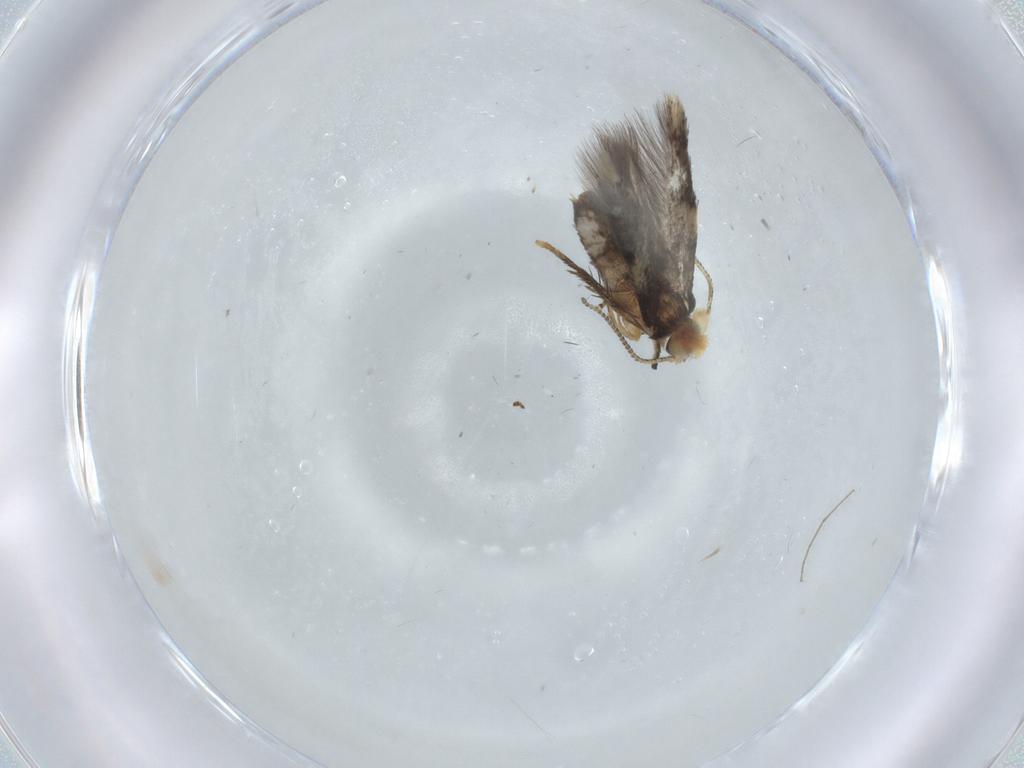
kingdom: Animalia
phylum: Arthropoda
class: Insecta
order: Lepidoptera
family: Nepticulidae
